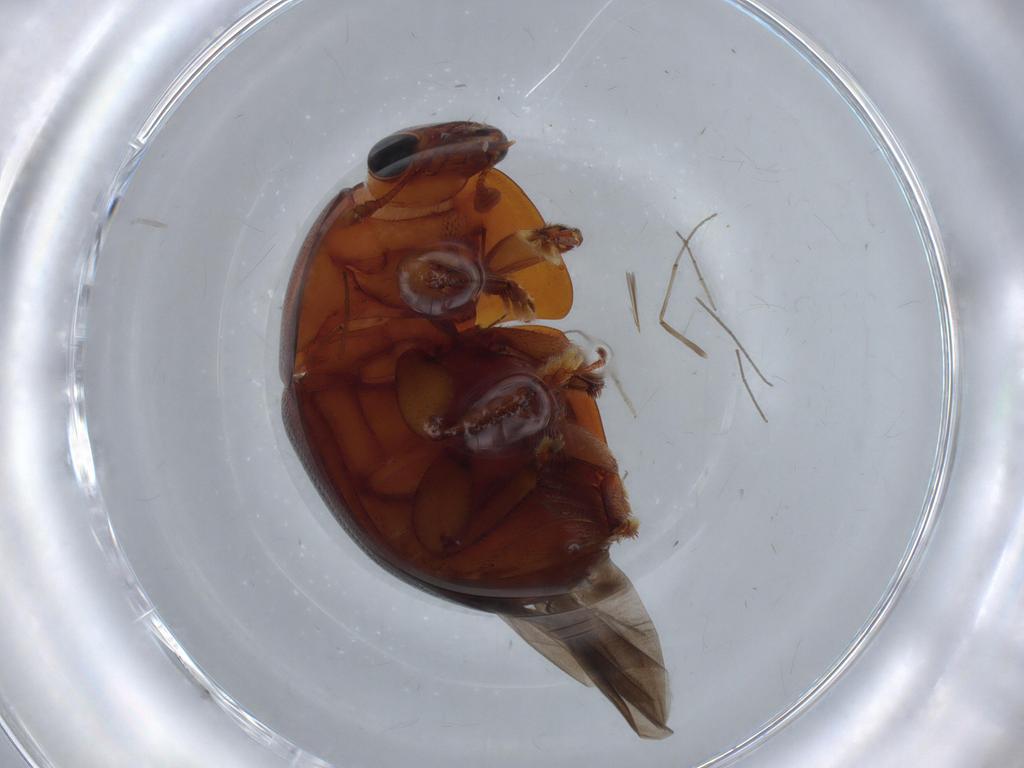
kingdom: Animalia
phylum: Arthropoda
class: Insecta
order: Coleoptera
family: Nitidulidae
